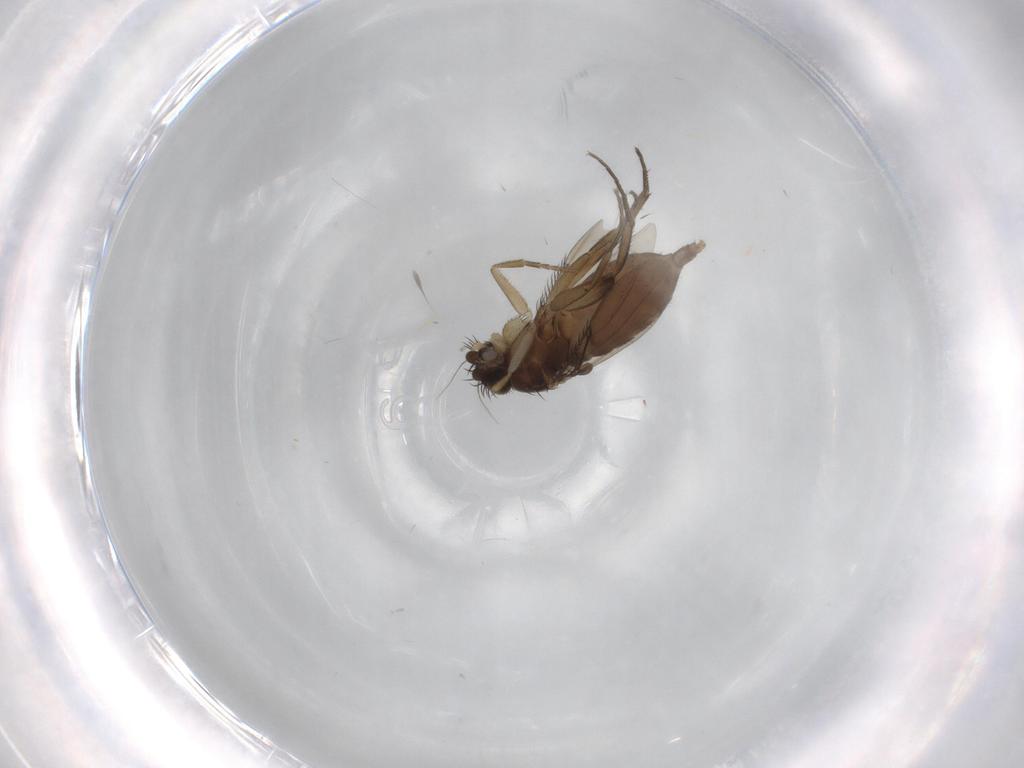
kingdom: Animalia
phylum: Arthropoda
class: Insecta
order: Diptera
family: Phoridae
